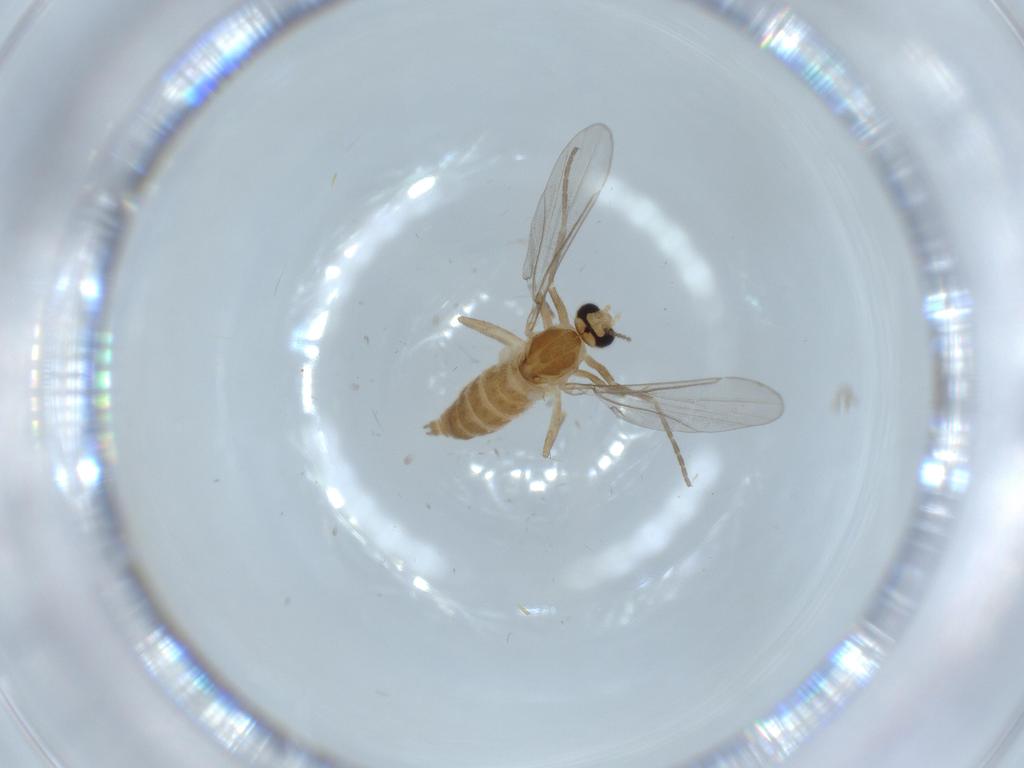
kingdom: Animalia
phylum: Arthropoda
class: Insecta
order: Diptera
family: Cecidomyiidae
